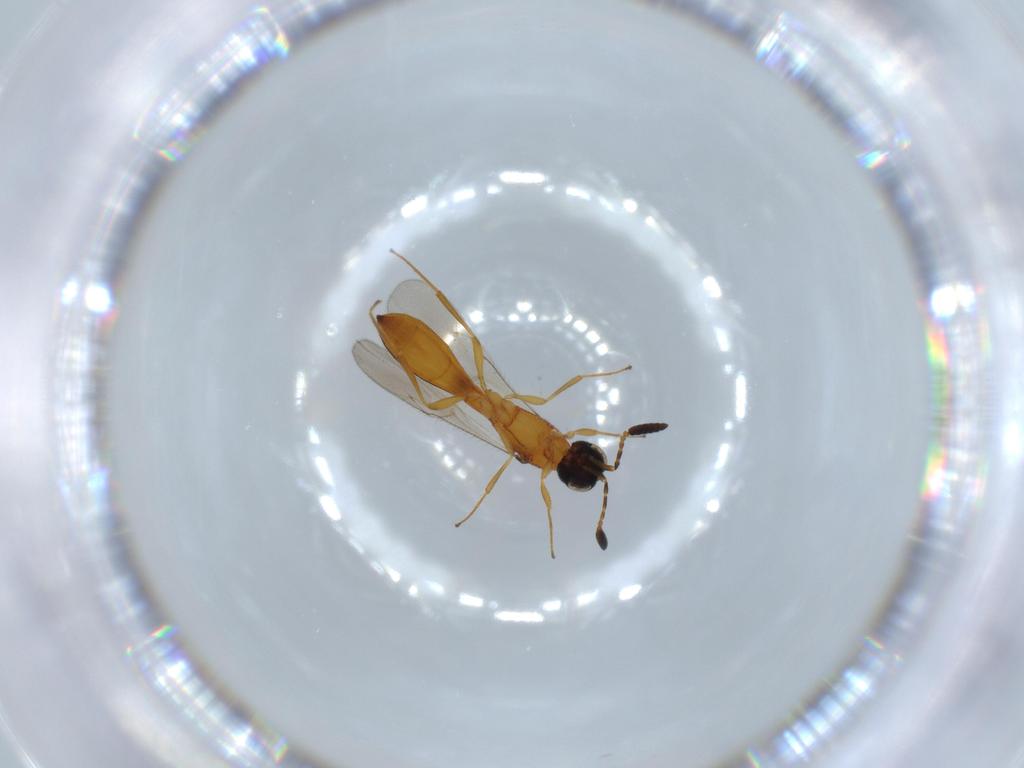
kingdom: Animalia
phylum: Arthropoda
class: Insecta
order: Hymenoptera
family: Scelionidae
